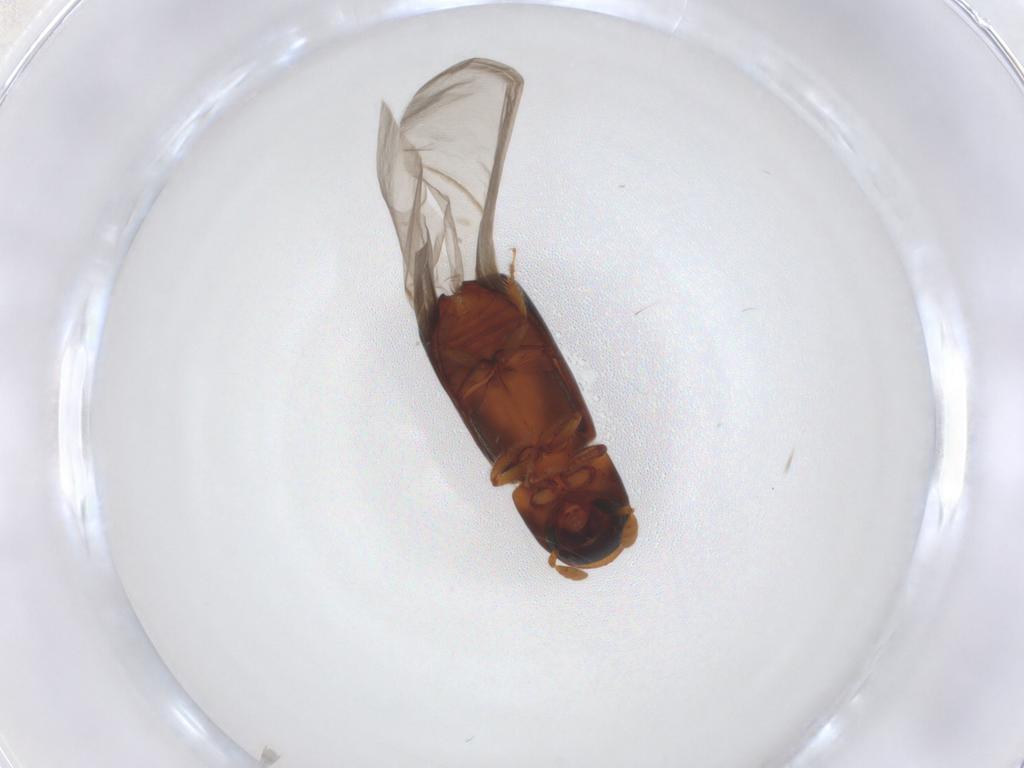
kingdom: Animalia
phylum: Arthropoda
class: Insecta
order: Coleoptera
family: Curculionidae
